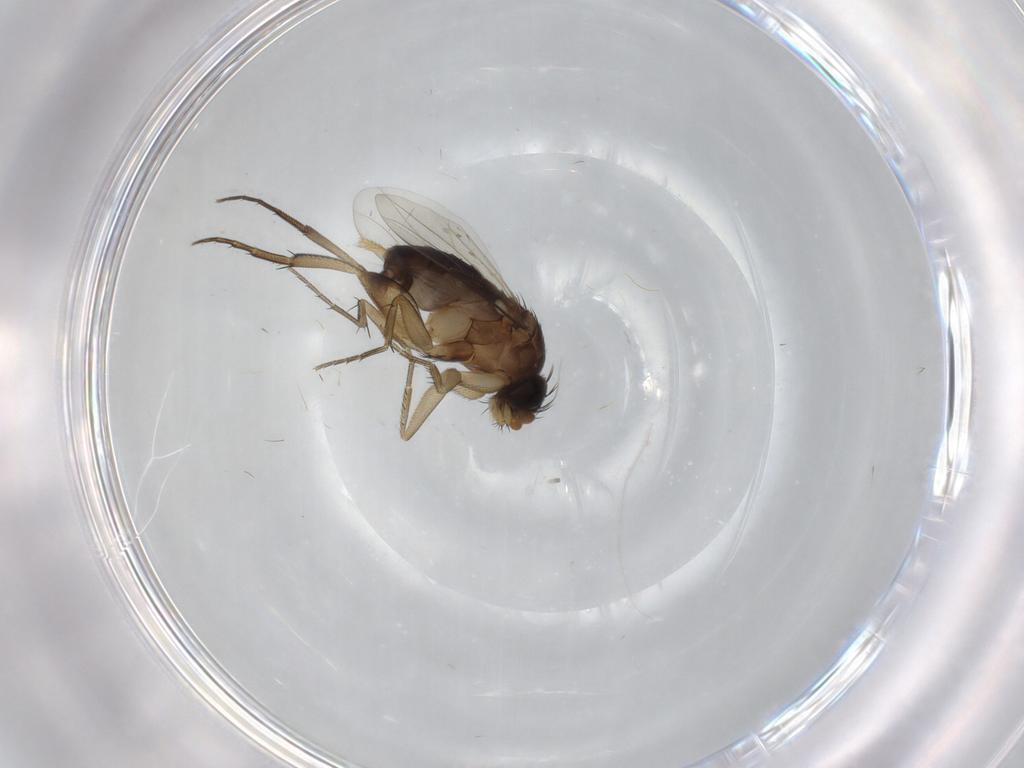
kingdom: Animalia
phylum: Arthropoda
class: Insecta
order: Diptera
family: Phoridae
